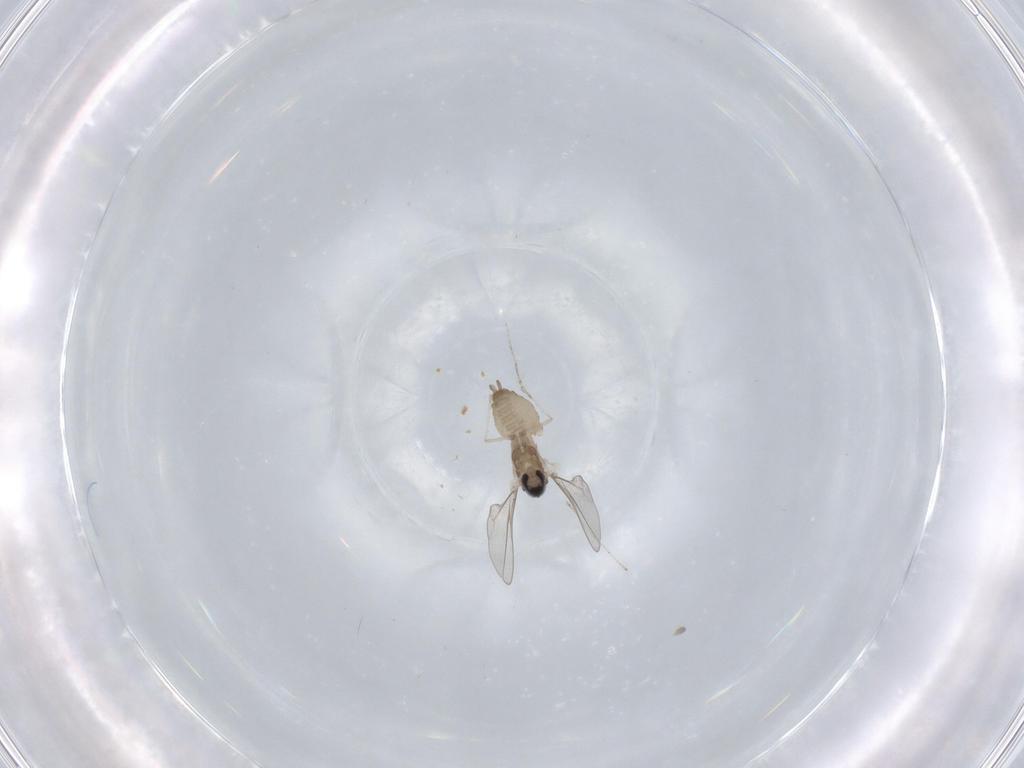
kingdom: Animalia
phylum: Arthropoda
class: Insecta
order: Diptera
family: Cecidomyiidae
